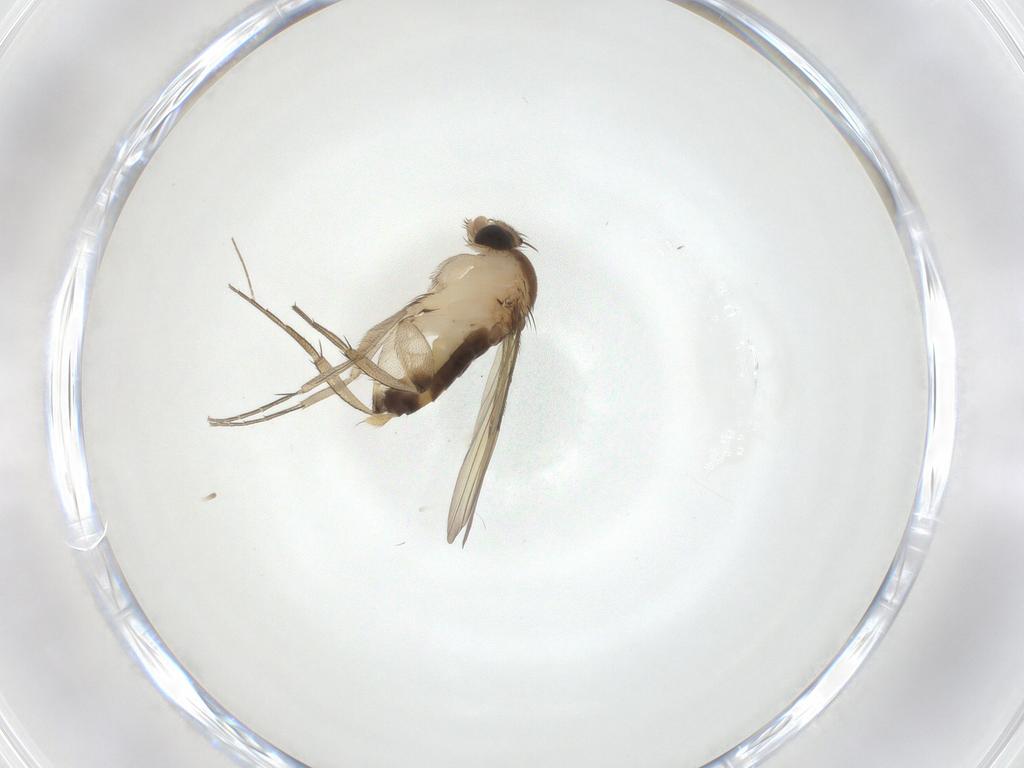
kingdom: Animalia
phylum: Arthropoda
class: Insecta
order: Diptera
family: Phoridae
